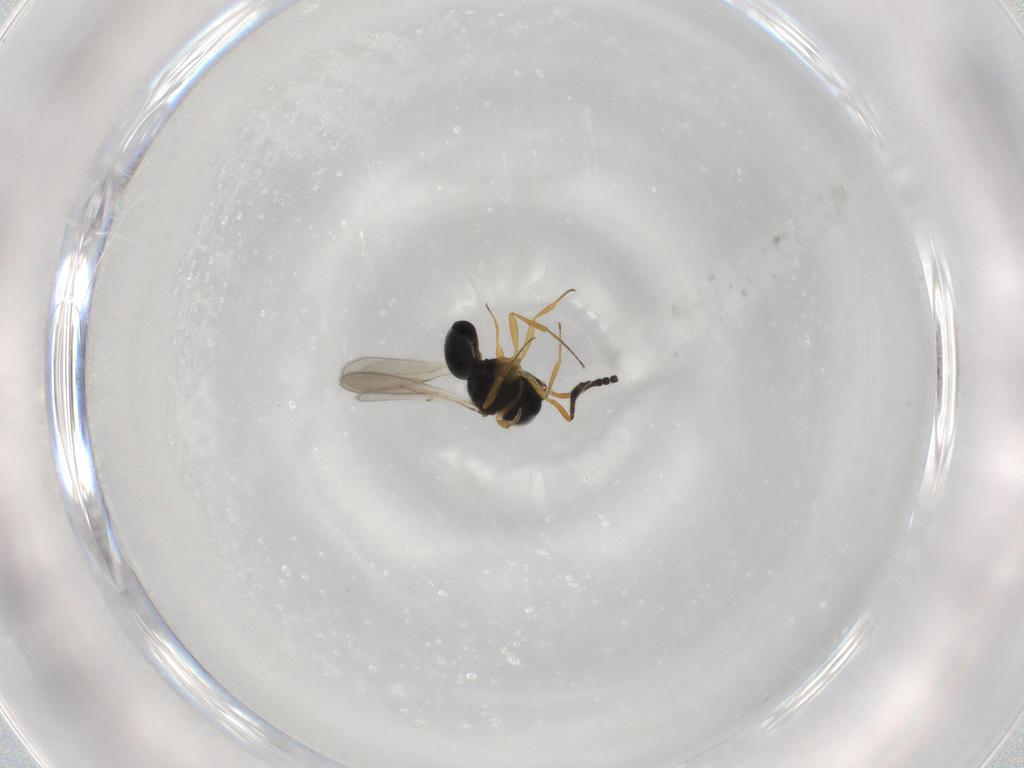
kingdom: Animalia
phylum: Arthropoda
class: Insecta
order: Hymenoptera
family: Scelionidae
